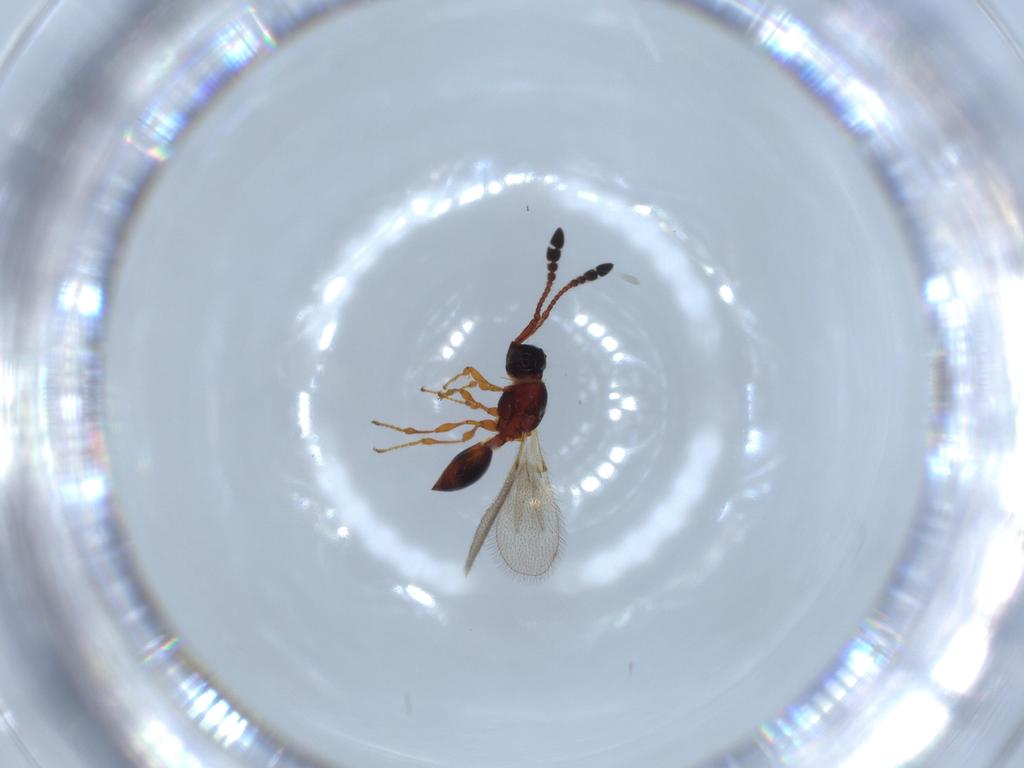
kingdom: Animalia
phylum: Arthropoda
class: Insecta
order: Hymenoptera
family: Diapriidae
